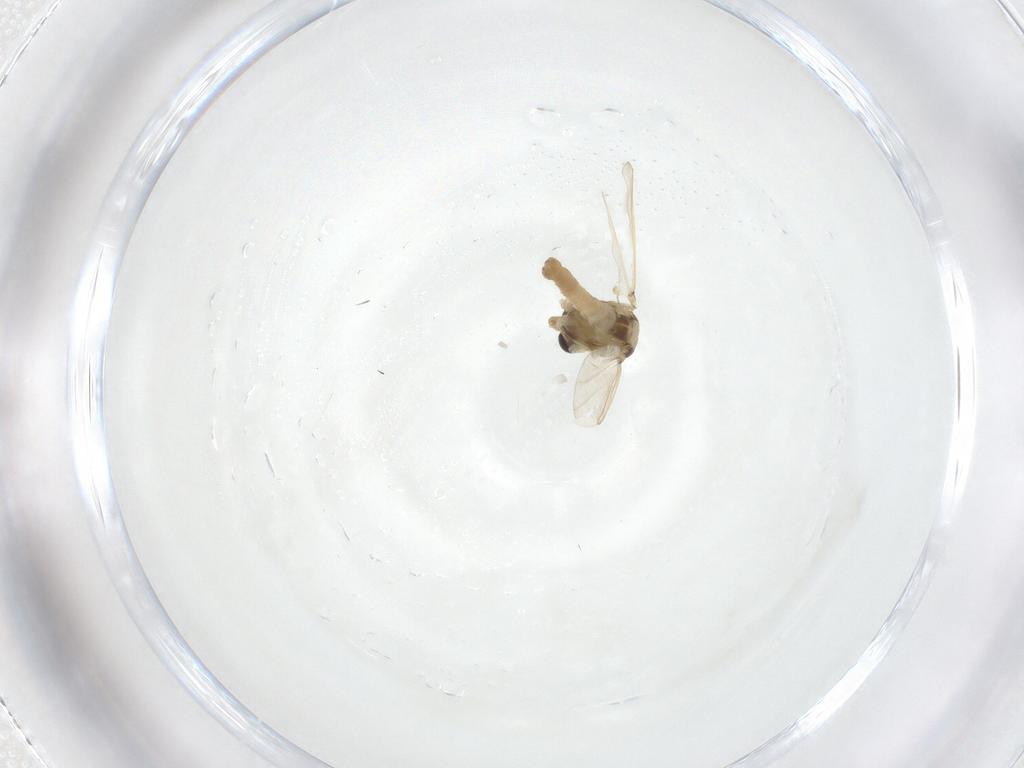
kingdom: Animalia
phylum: Arthropoda
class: Insecta
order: Diptera
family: Chironomidae
